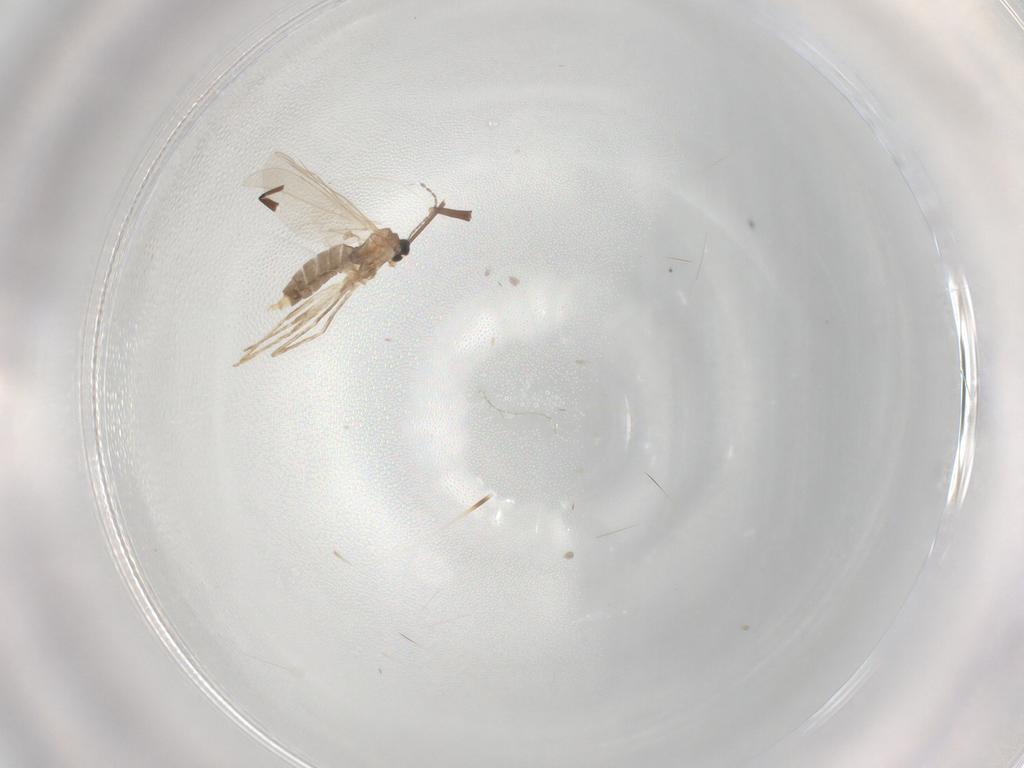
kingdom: Animalia
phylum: Arthropoda
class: Insecta
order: Diptera
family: Cecidomyiidae
